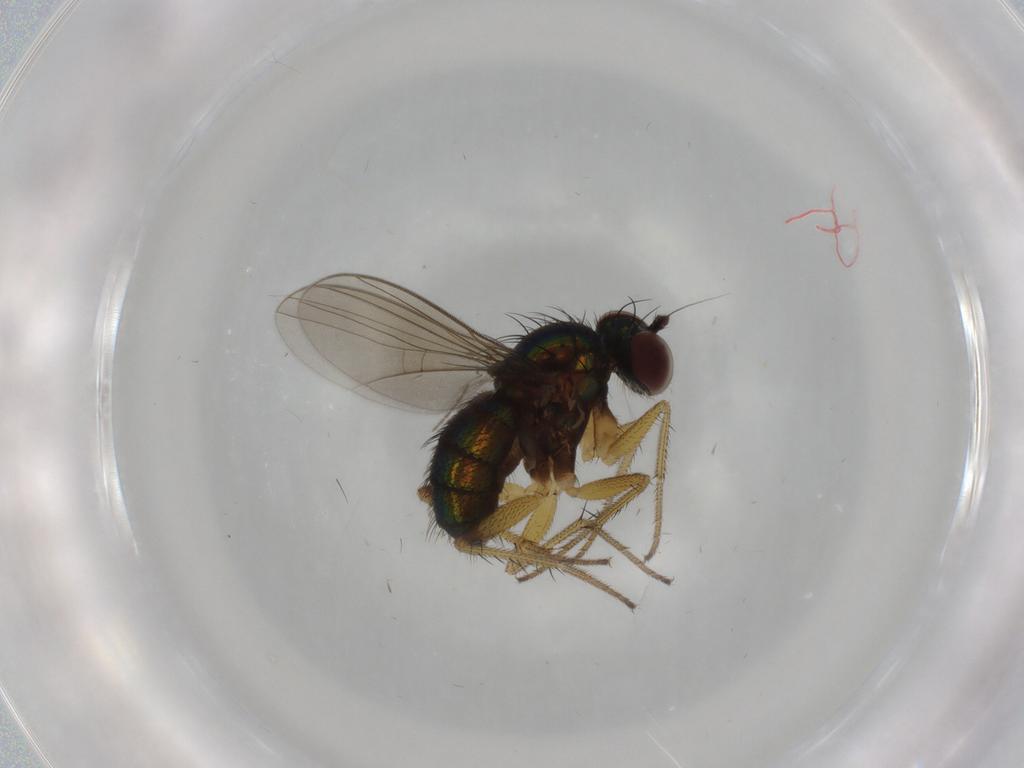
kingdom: Animalia
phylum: Arthropoda
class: Insecta
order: Diptera
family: Dolichopodidae
